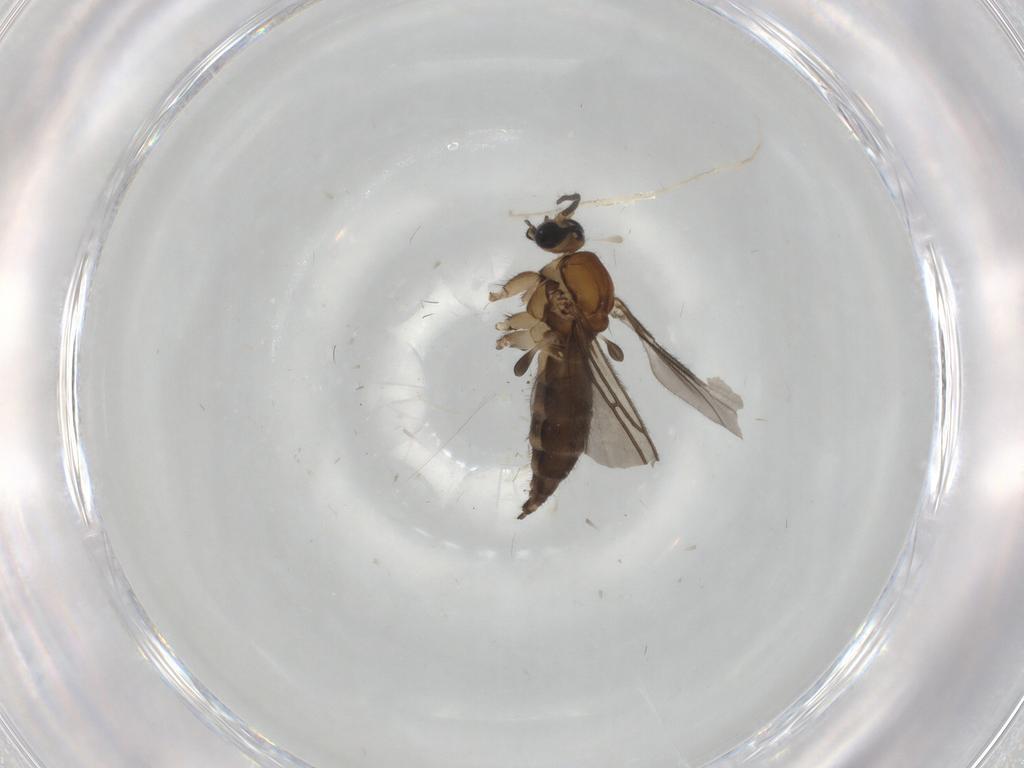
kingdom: Animalia
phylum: Arthropoda
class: Insecta
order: Diptera
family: Sciaridae
